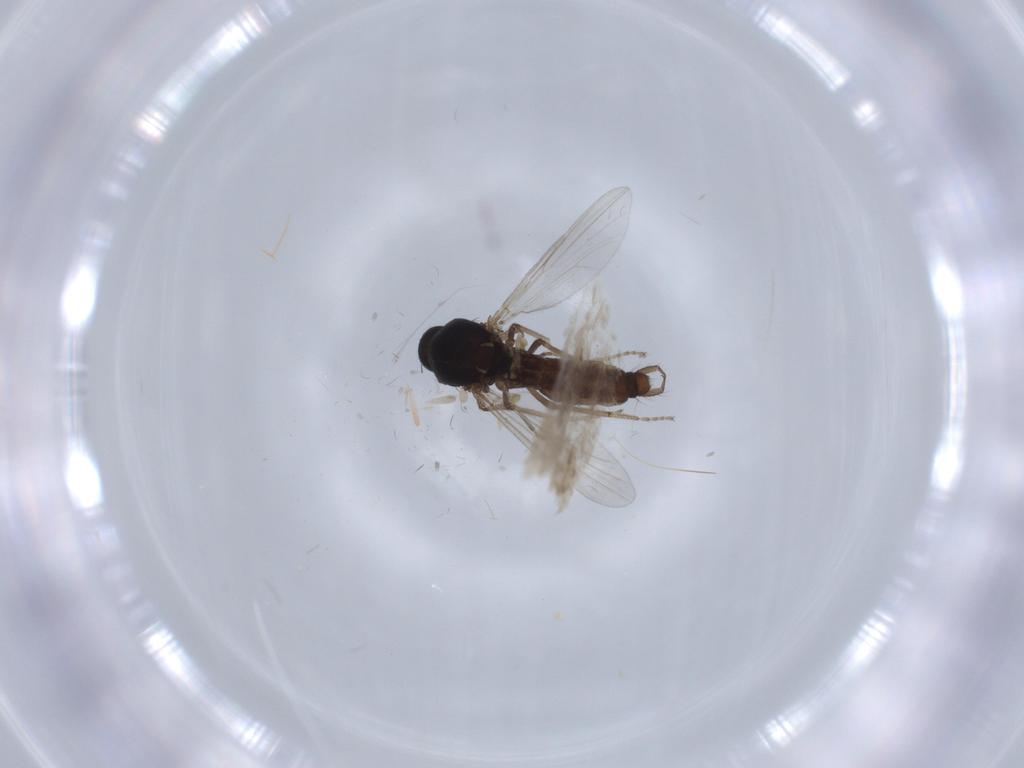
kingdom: Animalia
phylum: Arthropoda
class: Insecta
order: Diptera
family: Ceratopogonidae
